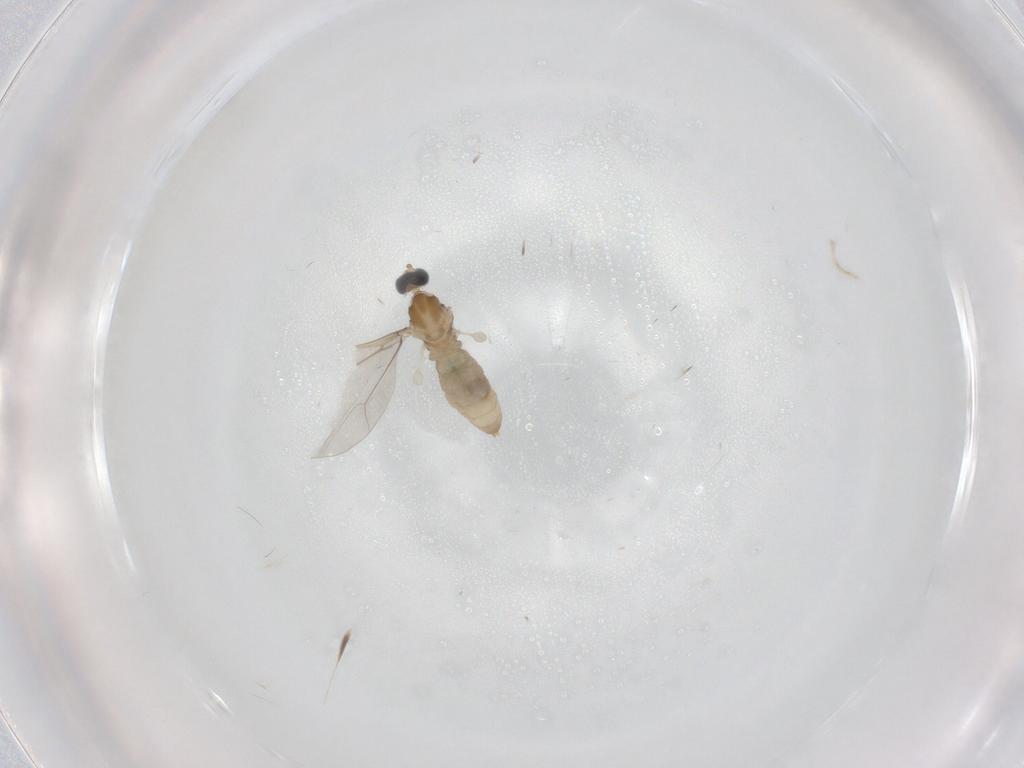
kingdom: Animalia
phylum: Arthropoda
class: Insecta
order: Diptera
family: Cecidomyiidae
